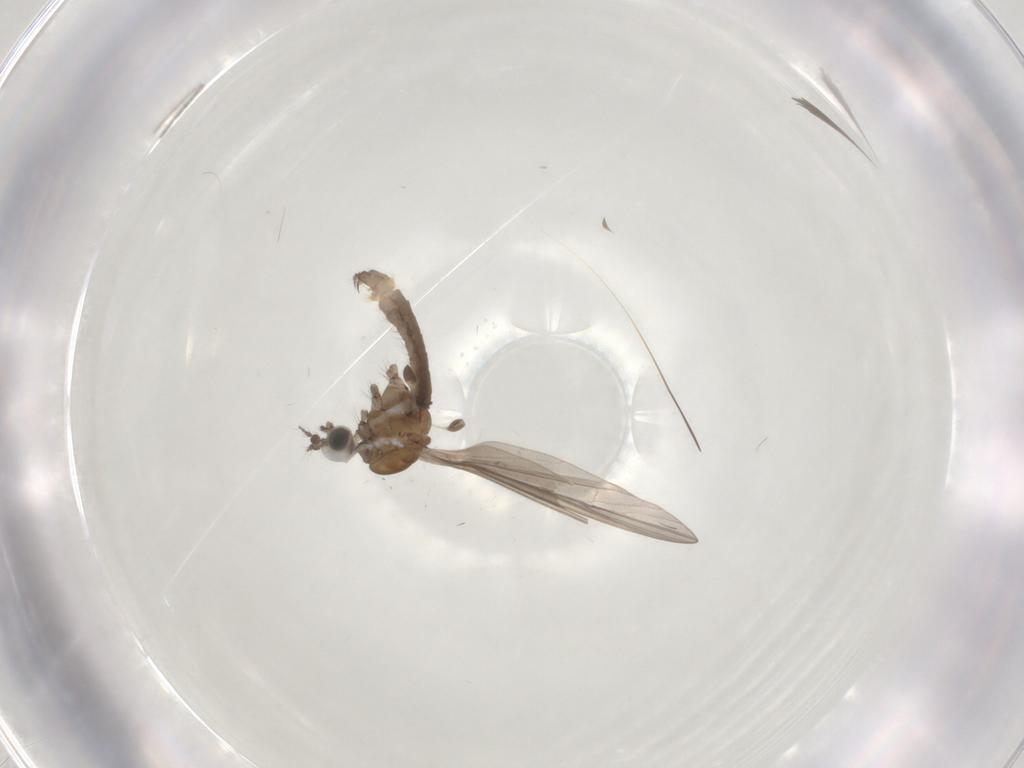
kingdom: Animalia
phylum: Arthropoda
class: Insecta
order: Diptera
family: Limoniidae
